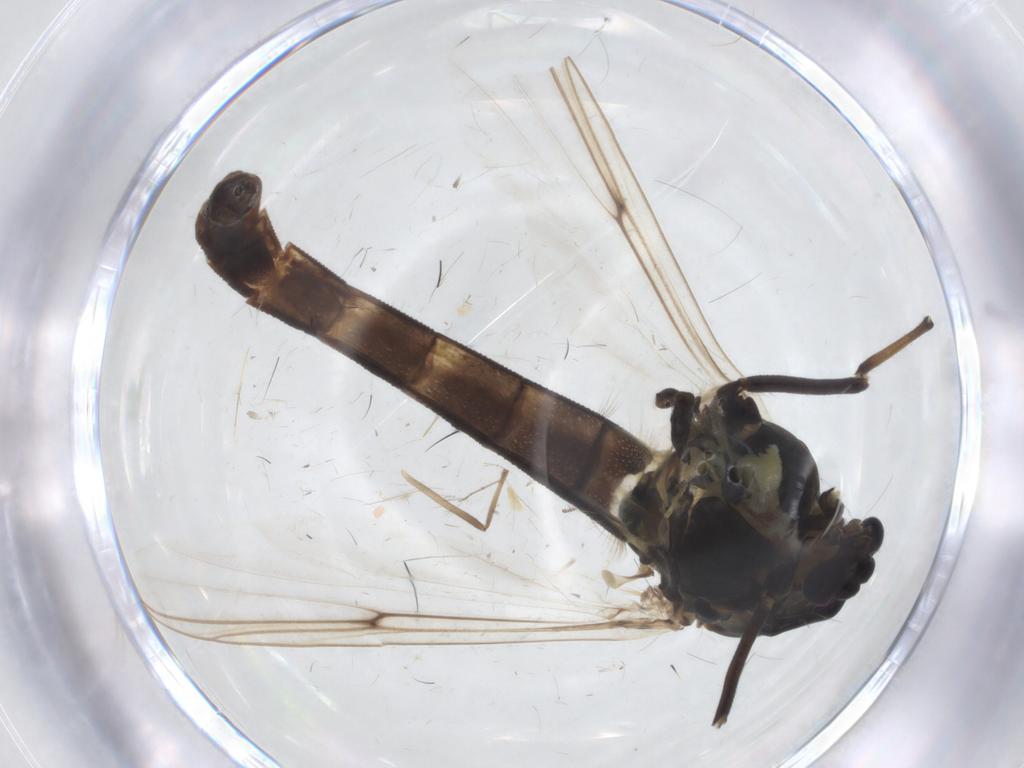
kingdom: Animalia
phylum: Arthropoda
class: Insecta
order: Diptera
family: Chironomidae
